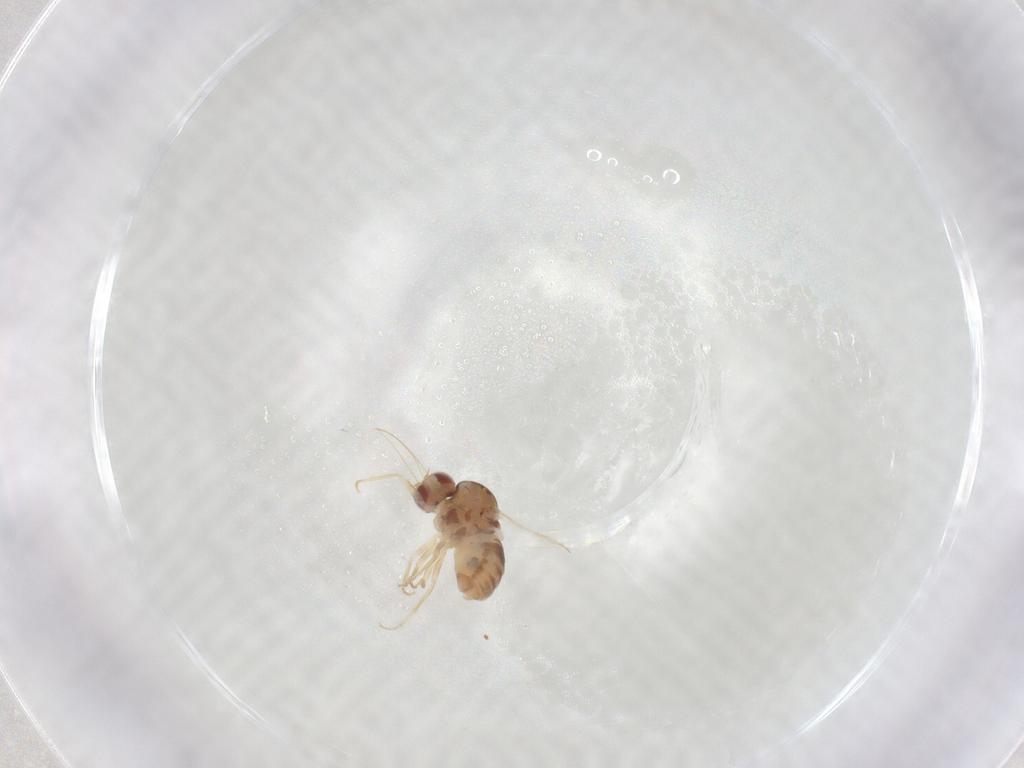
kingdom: Animalia
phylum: Arthropoda
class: Insecta
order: Diptera
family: Bombyliidae
